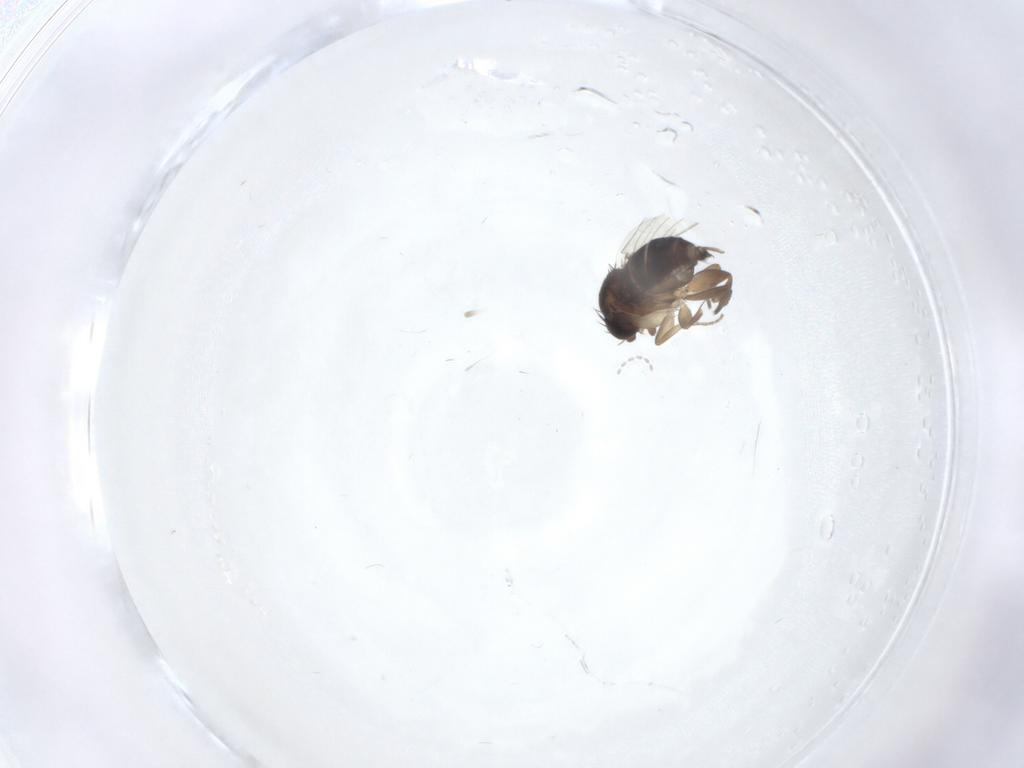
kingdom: Animalia
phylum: Arthropoda
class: Insecta
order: Diptera
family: Phoridae
